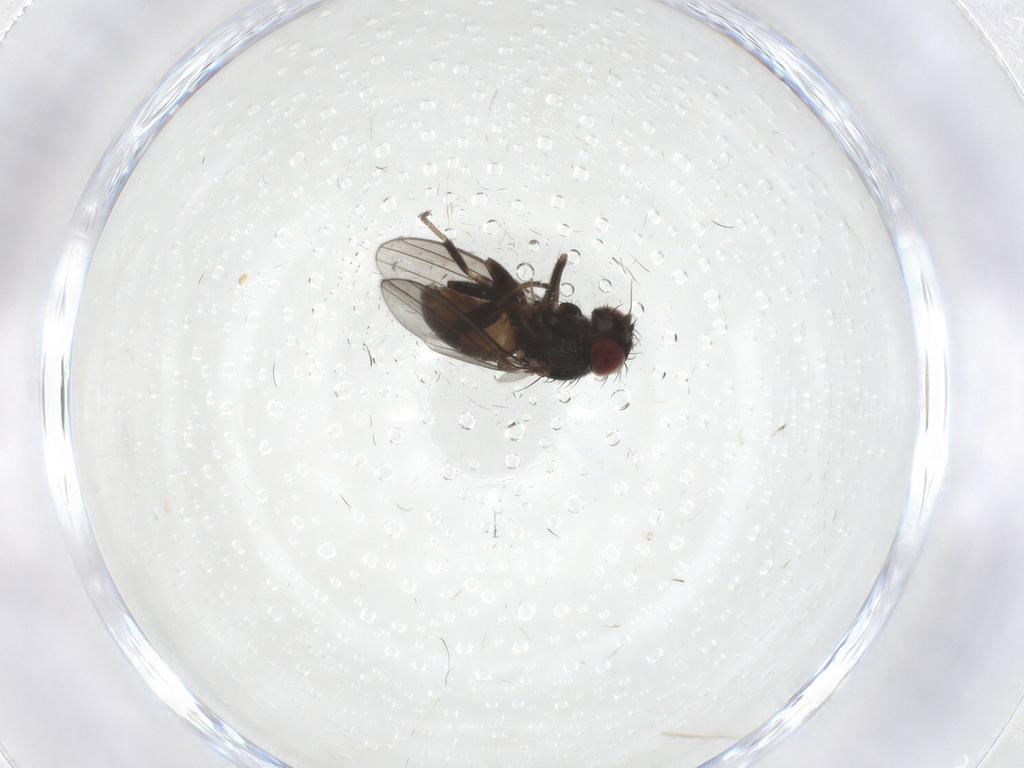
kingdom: Animalia
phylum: Arthropoda
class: Insecta
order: Diptera
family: Milichiidae
